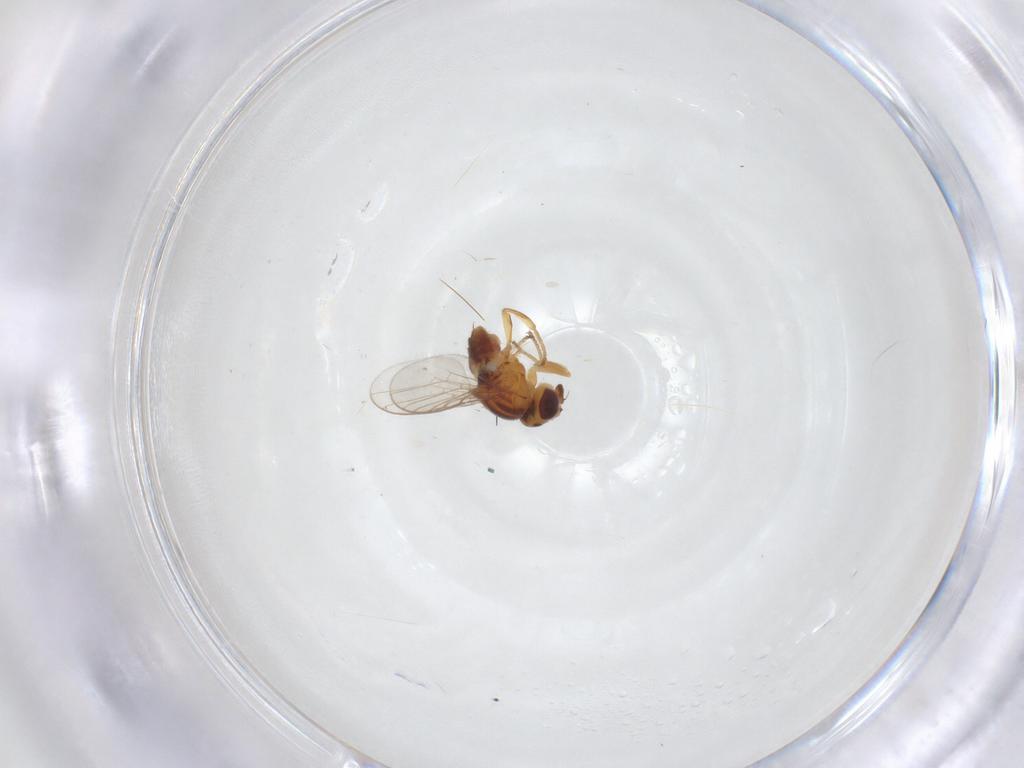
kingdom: Animalia
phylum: Arthropoda
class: Insecta
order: Diptera
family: Chloropidae
